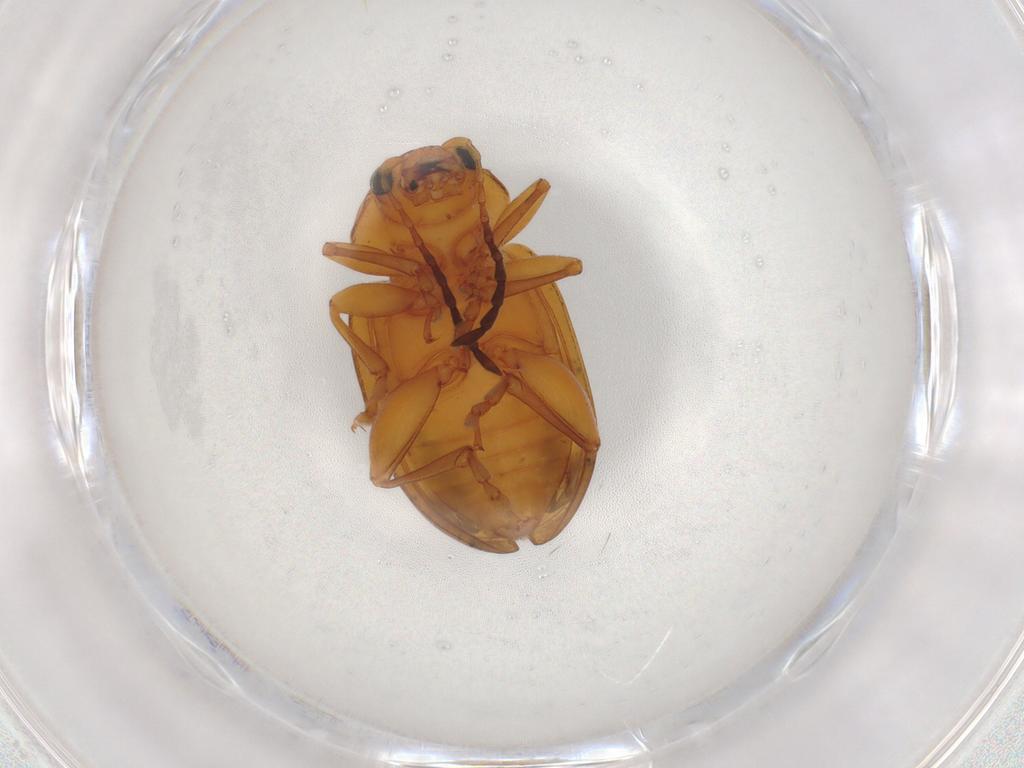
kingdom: Animalia
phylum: Arthropoda
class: Insecta
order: Coleoptera
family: Chrysomelidae
